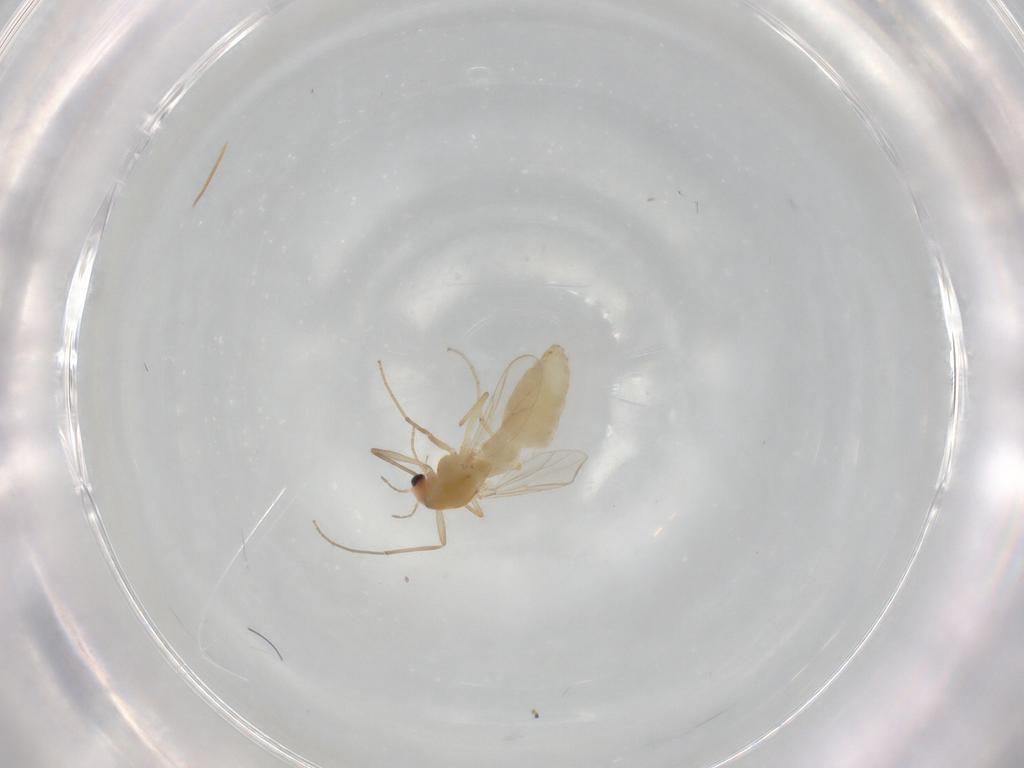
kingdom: Animalia
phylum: Arthropoda
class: Insecta
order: Diptera
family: Chironomidae
